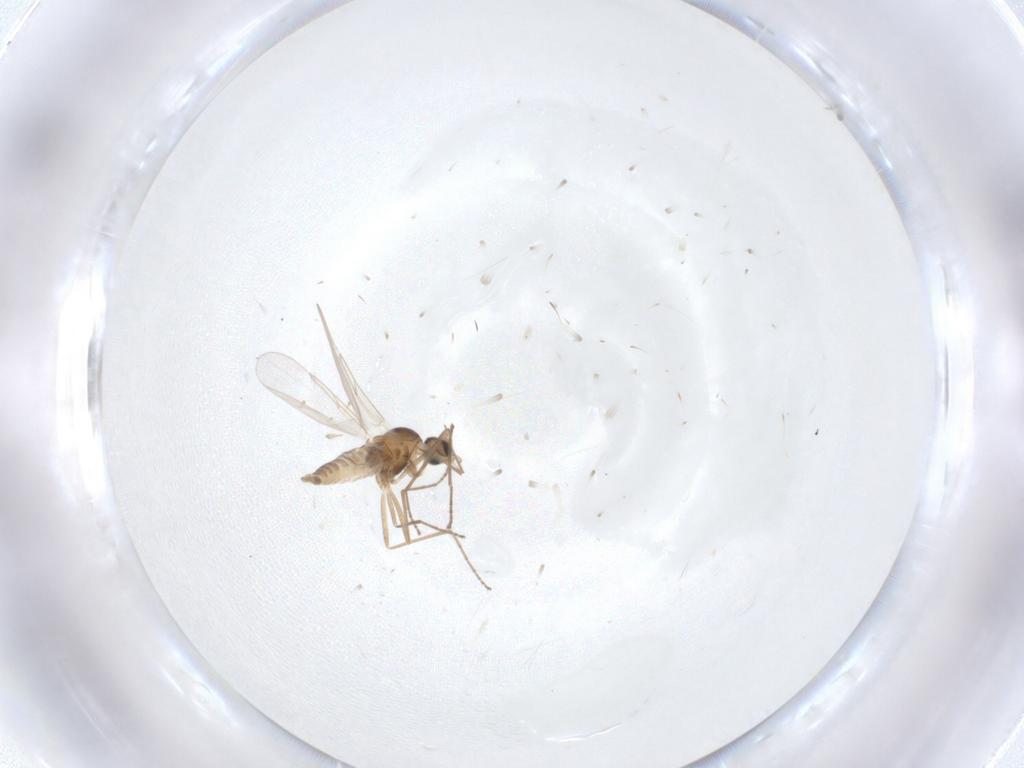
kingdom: Animalia
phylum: Arthropoda
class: Insecta
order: Diptera
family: Cecidomyiidae
